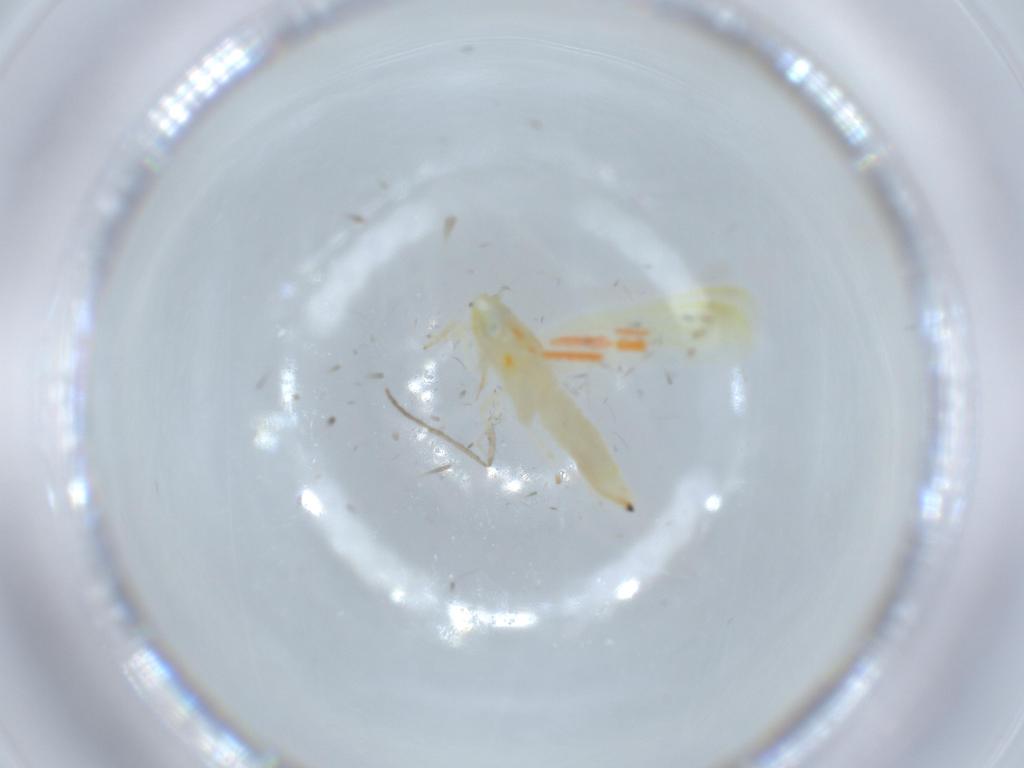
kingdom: Animalia
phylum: Arthropoda
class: Insecta
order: Hemiptera
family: Cicadellidae
